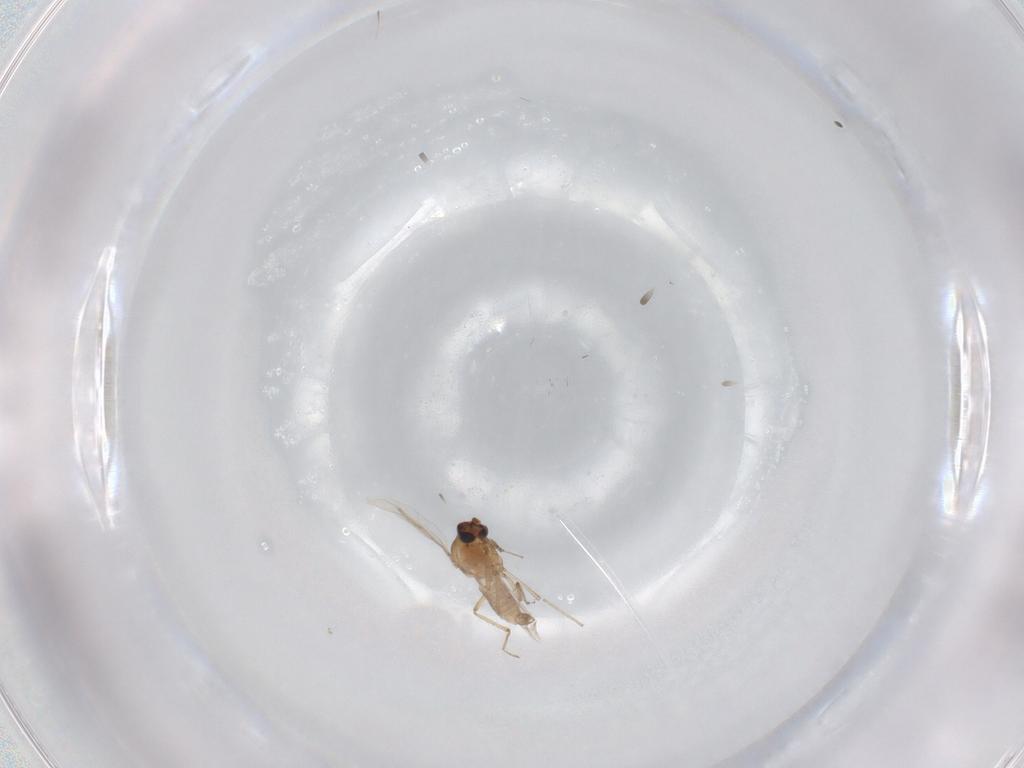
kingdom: Animalia
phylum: Arthropoda
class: Insecta
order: Diptera
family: Cecidomyiidae
